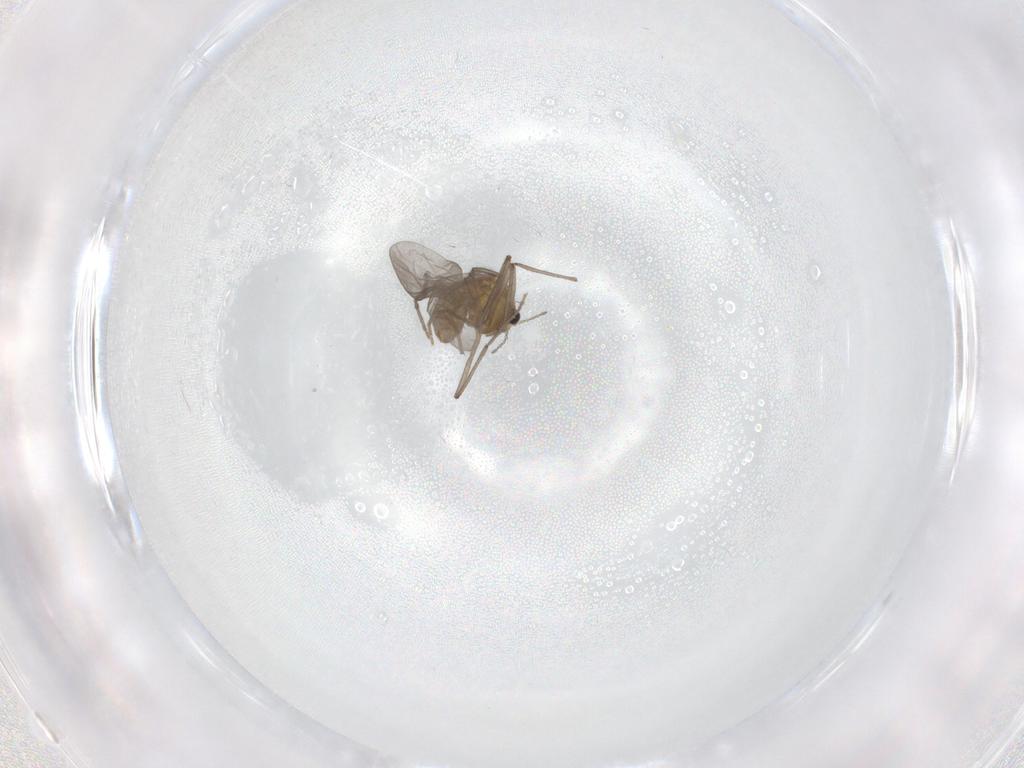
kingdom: Animalia
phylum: Arthropoda
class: Insecta
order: Diptera
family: Chironomidae
